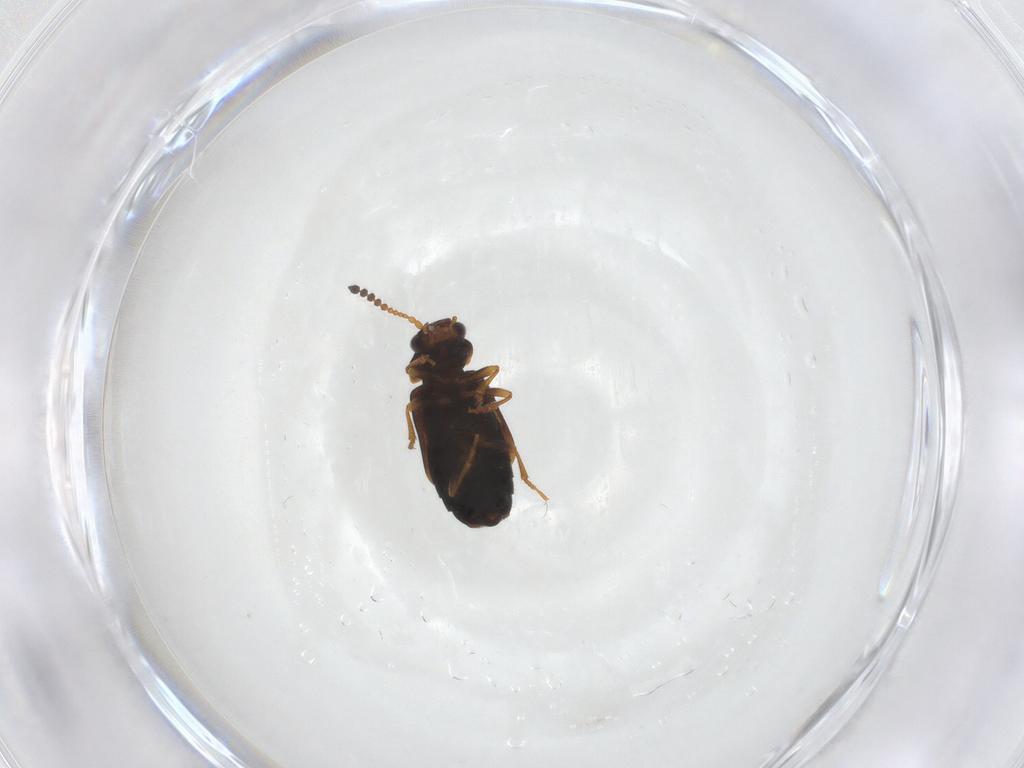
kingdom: Animalia
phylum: Arthropoda
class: Insecta
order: Coleoptera
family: Staphylinidae
